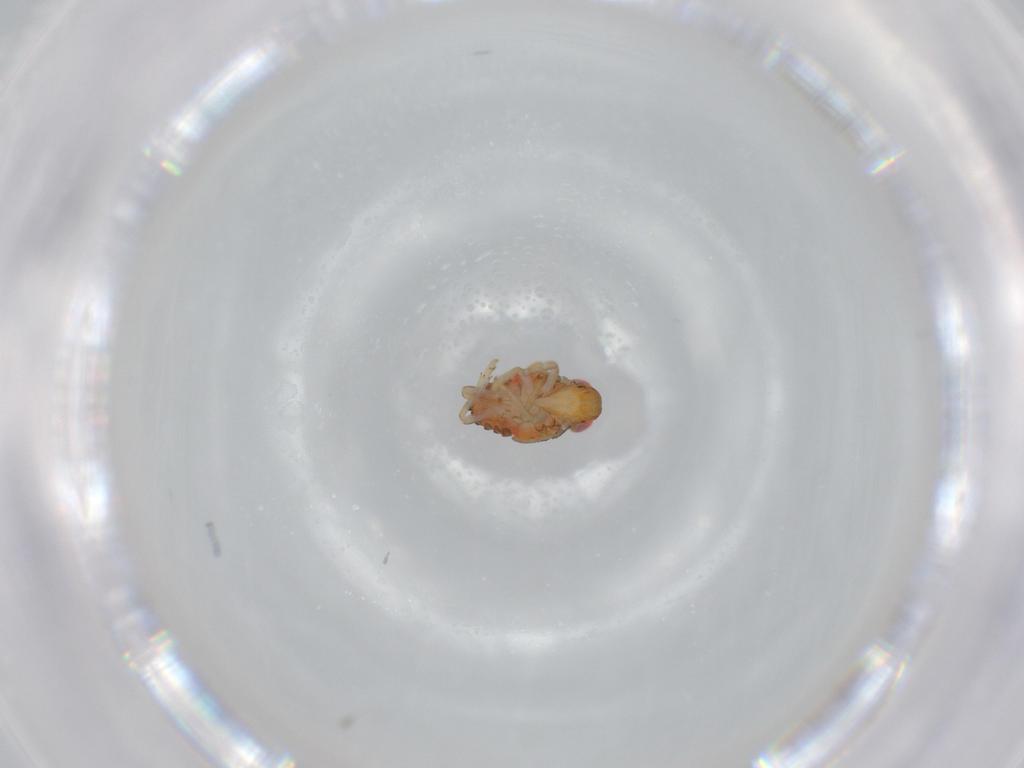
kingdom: Animalia
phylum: Arthropoda
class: Insecta
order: Hemiptera
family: Issidae
